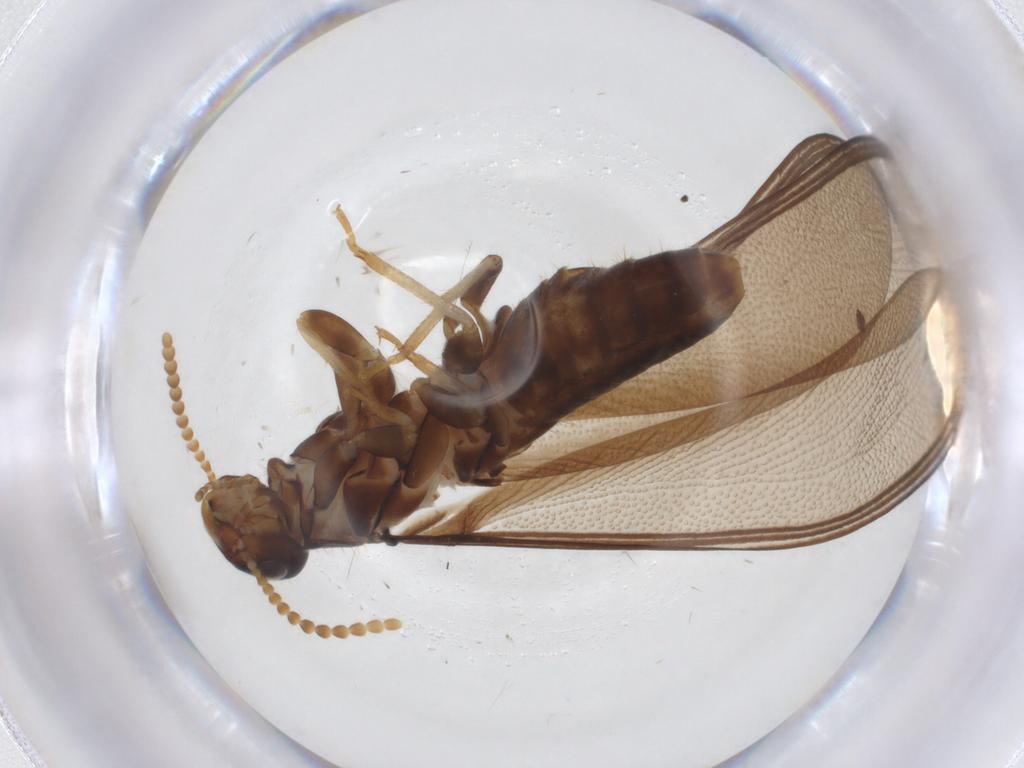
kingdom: Animalia
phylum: Arthropoda
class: Insecta
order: Blattodea
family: Kalotermitidae
